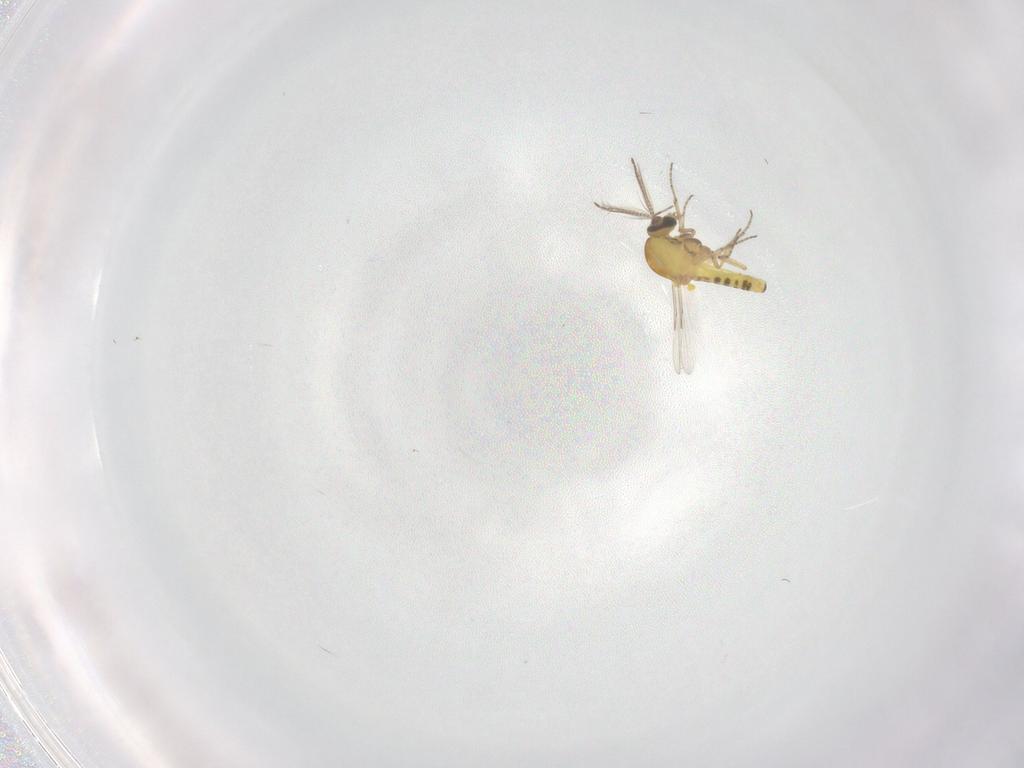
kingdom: Animalia
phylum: Arthropoda
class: Insecta
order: Diptera
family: Ceratopogonidae
